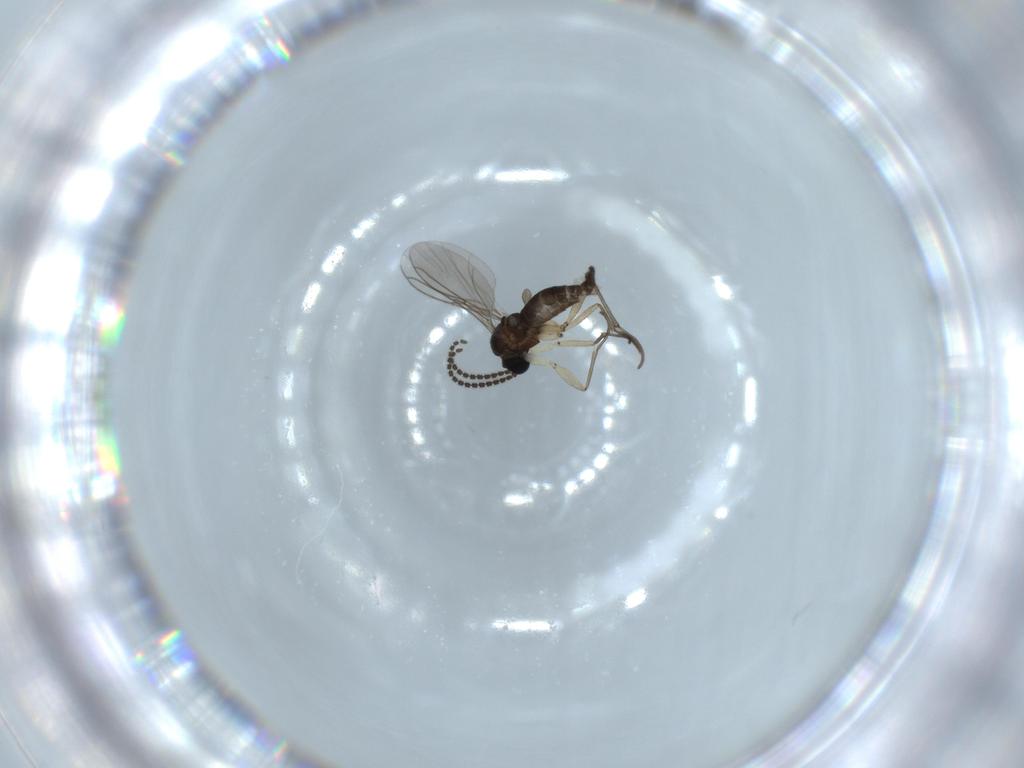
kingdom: Animalia
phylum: Arthropoda
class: Insecta
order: Diptera
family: Sciaridae
